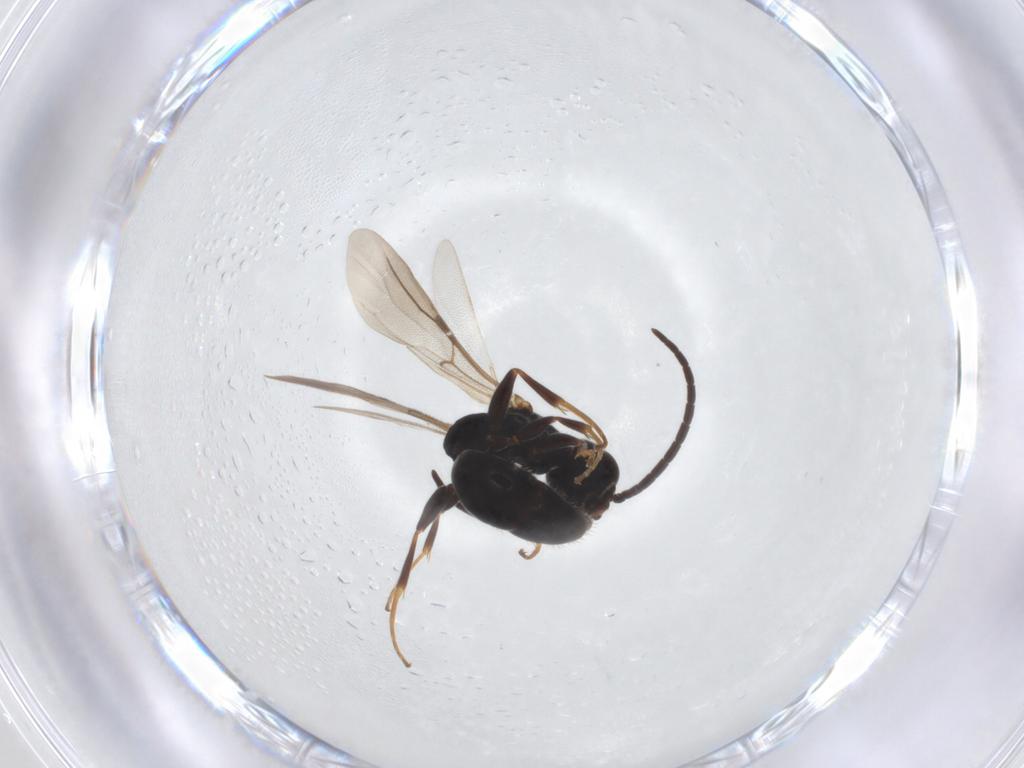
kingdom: Animalia
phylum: Arthropoda
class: Insecta
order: Hymenoptera
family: Bethylidae
